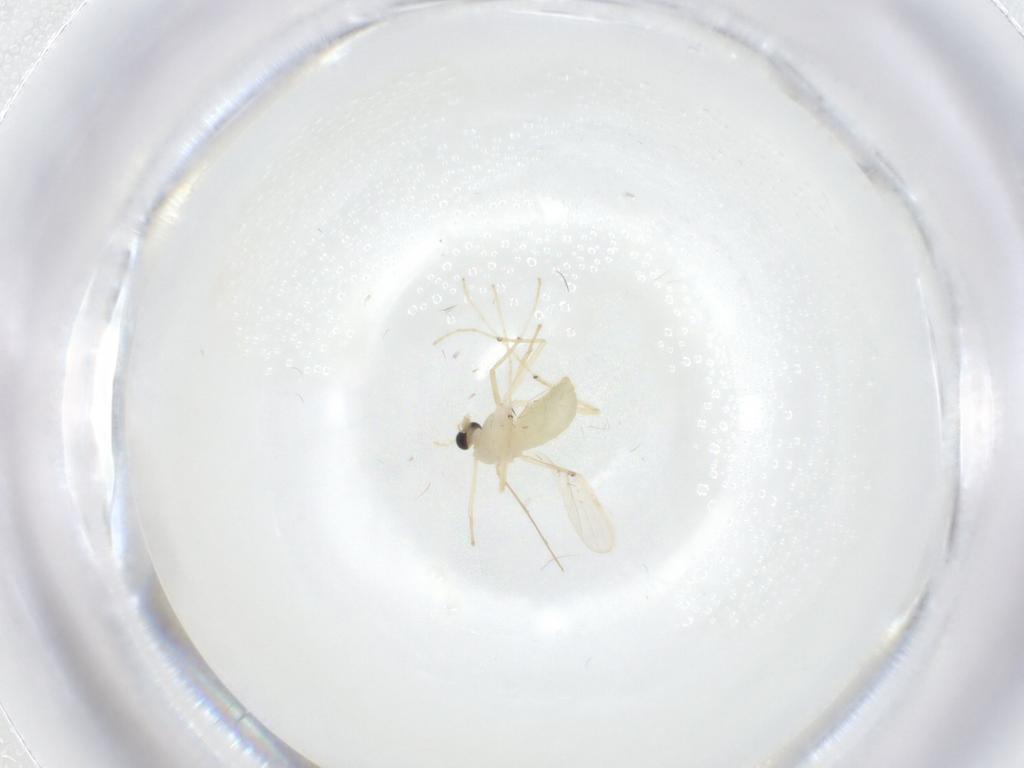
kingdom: Animalia
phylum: Arthropoda
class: Insecta
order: Diptera
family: Chironomidae
